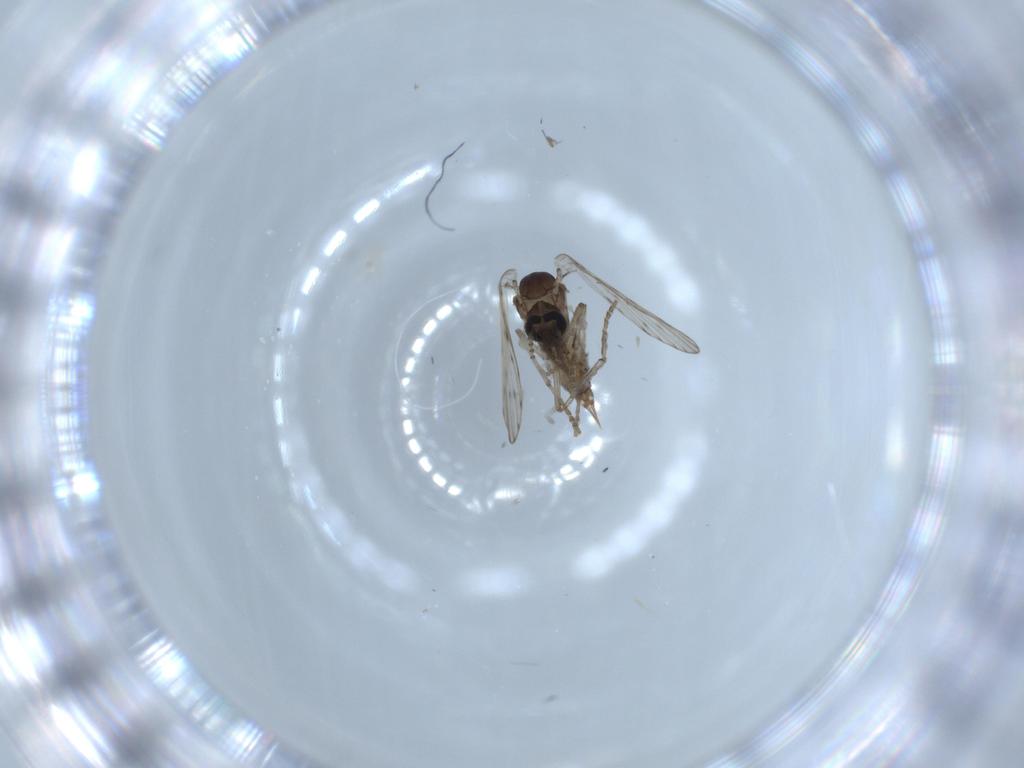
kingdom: Animalia
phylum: Arthropoda
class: Insecta
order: Diptera
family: Psychodidae
